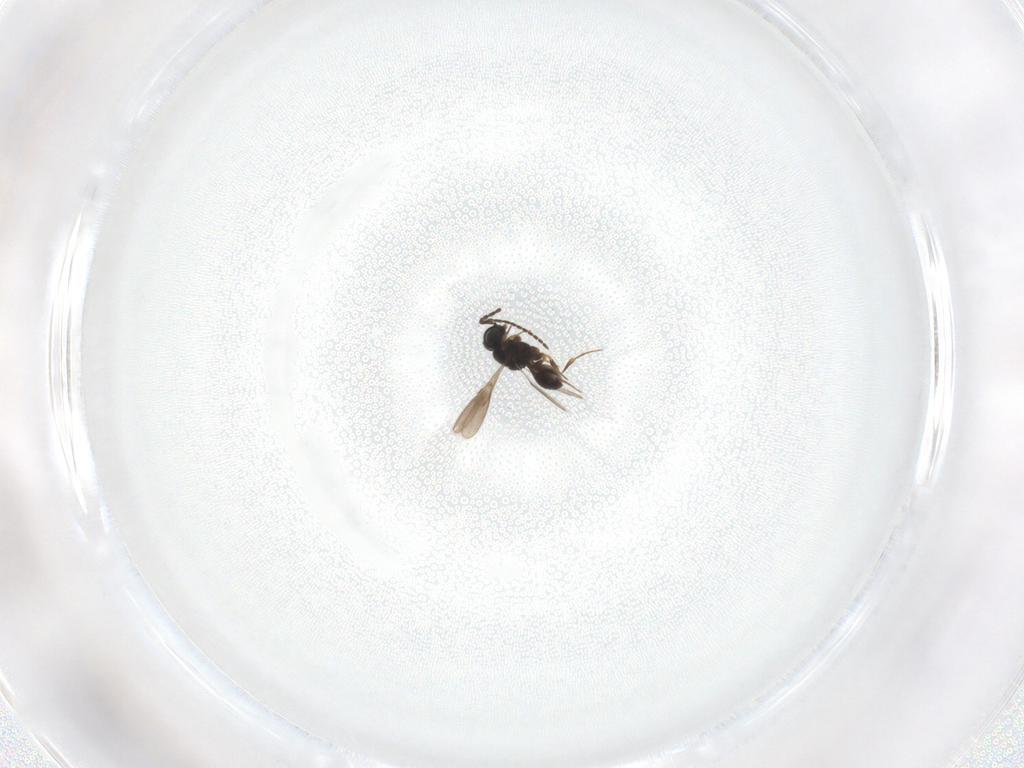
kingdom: Animalia
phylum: Arthropoda
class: Insecta
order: Hymenoptera
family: Scelionidae
